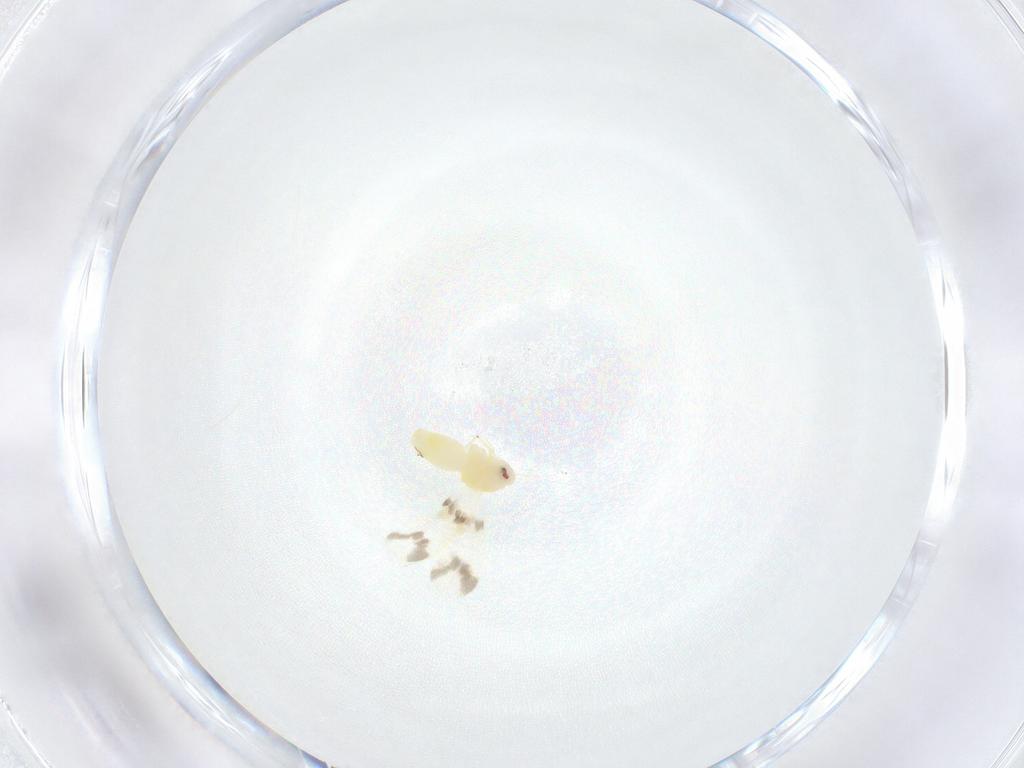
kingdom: Animalia
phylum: Arthropoda
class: Insecta
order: Hemiptera
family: Aleyrodidae
